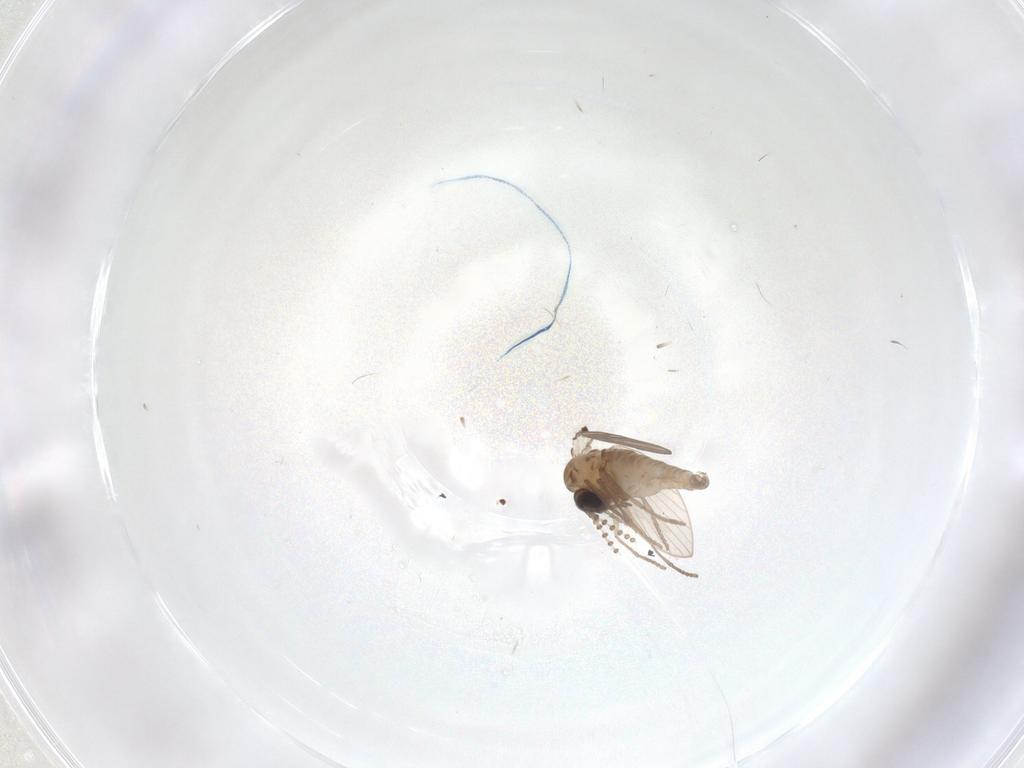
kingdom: Animalia
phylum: Arthropoda
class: Insecta
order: Diptera
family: Psychodidae
